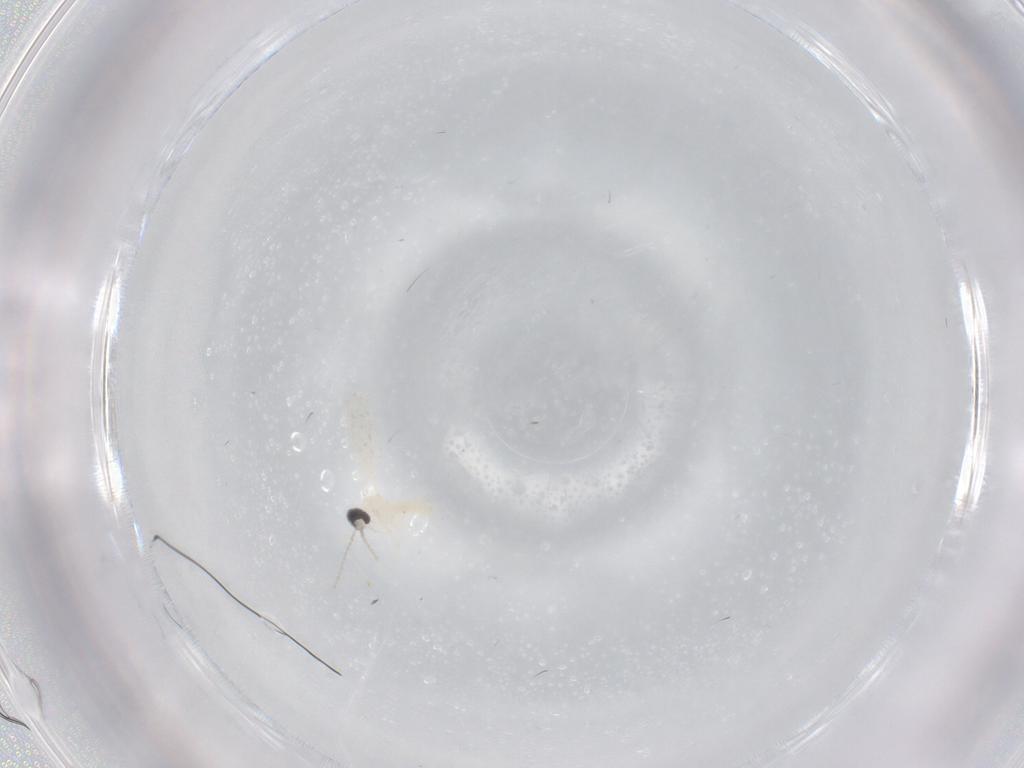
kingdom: Animalia
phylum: Arthropoda
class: Insecta
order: Diptera
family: Cecidomyiidae
